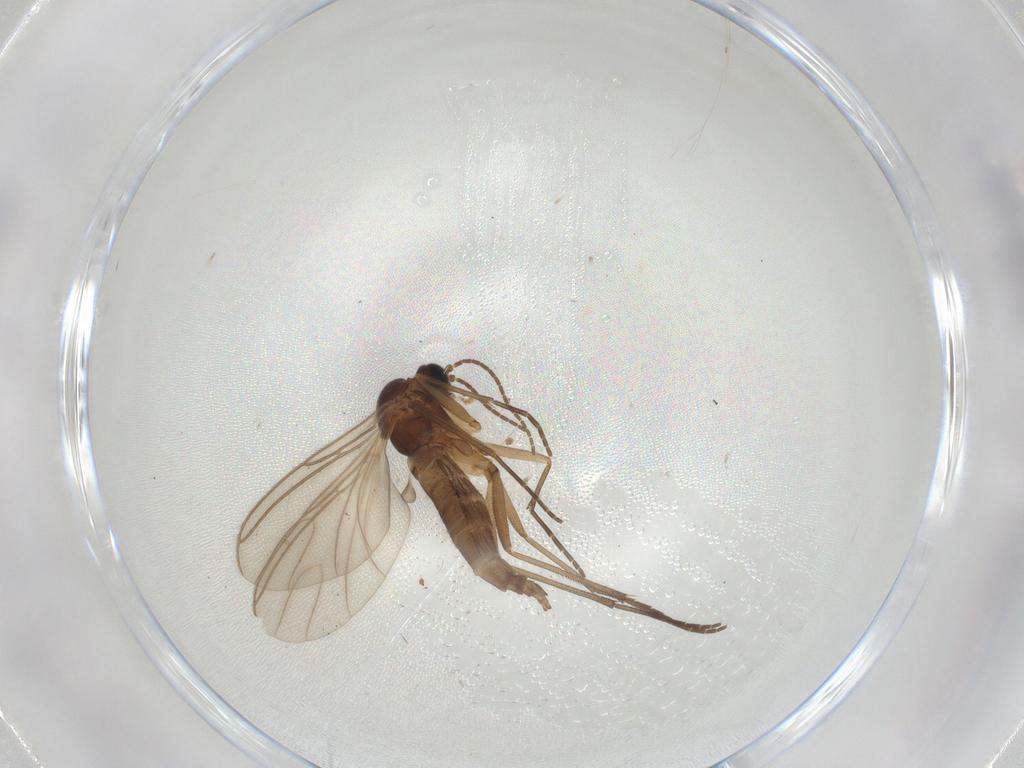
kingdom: Animalia
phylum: Arthropoda
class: Insecta
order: Diptera
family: Sciaridae
